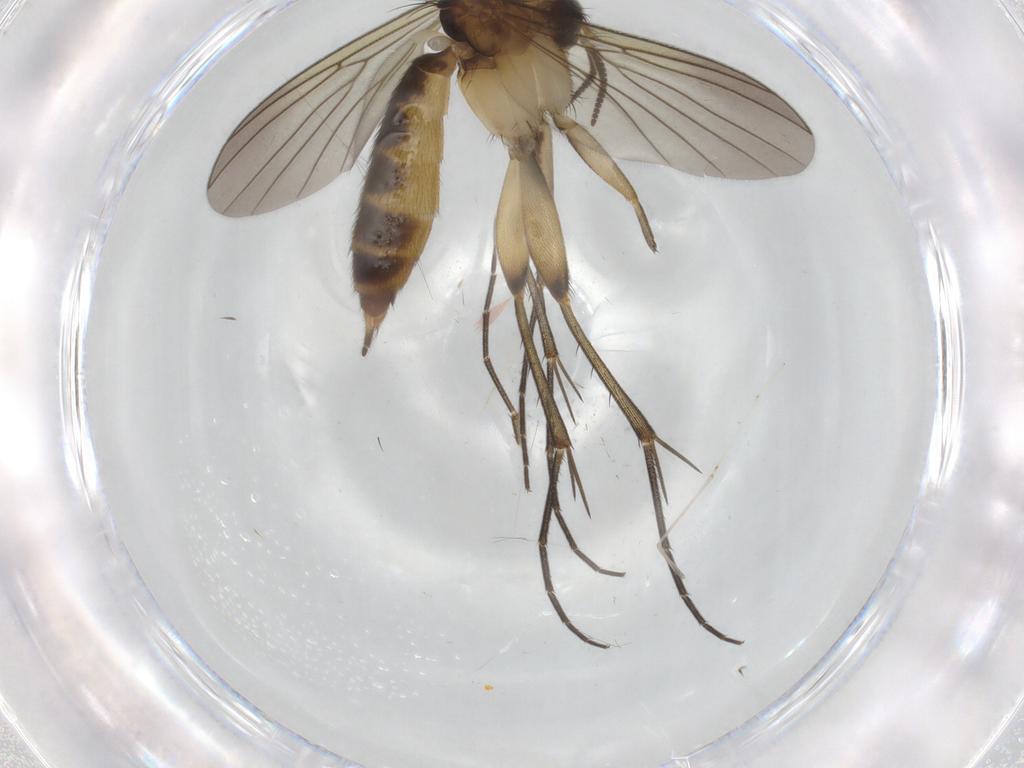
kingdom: Animalia
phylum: Arthropoda
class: Insecta
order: Diptera
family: Mycetophilidae
